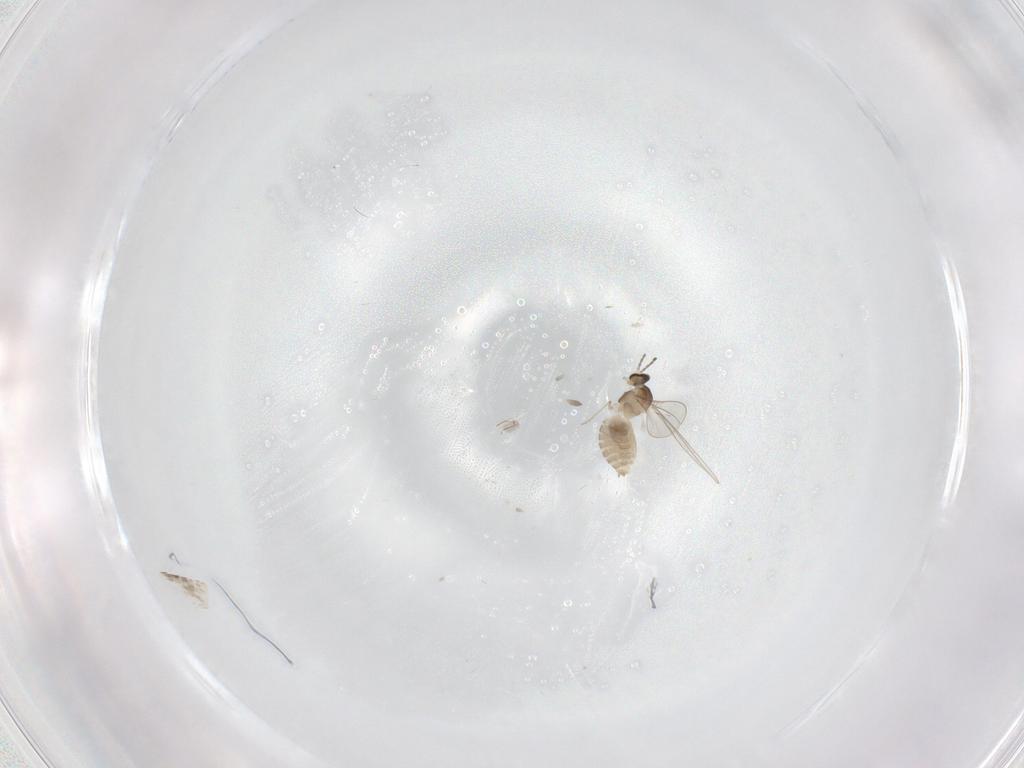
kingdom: Animalia
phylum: Arthropoda
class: Insecta
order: Diptera
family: Cecidomyiidae
